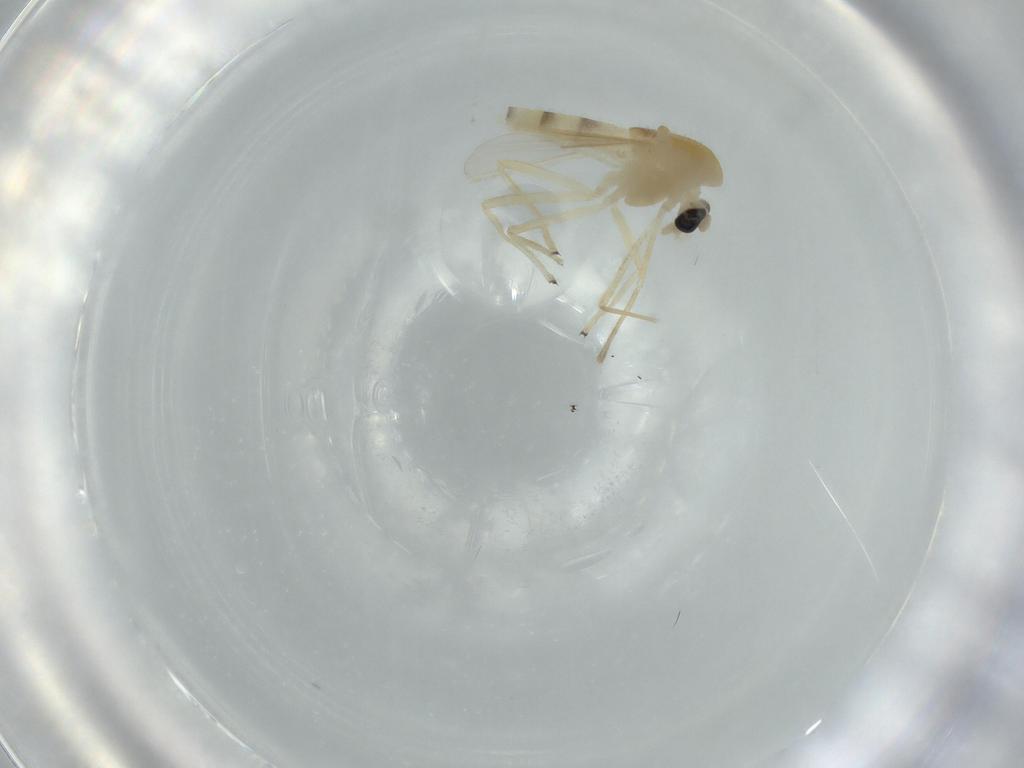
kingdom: Animalia
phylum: Arthropoda
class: Insecta
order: Diptera
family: Chironomidae
